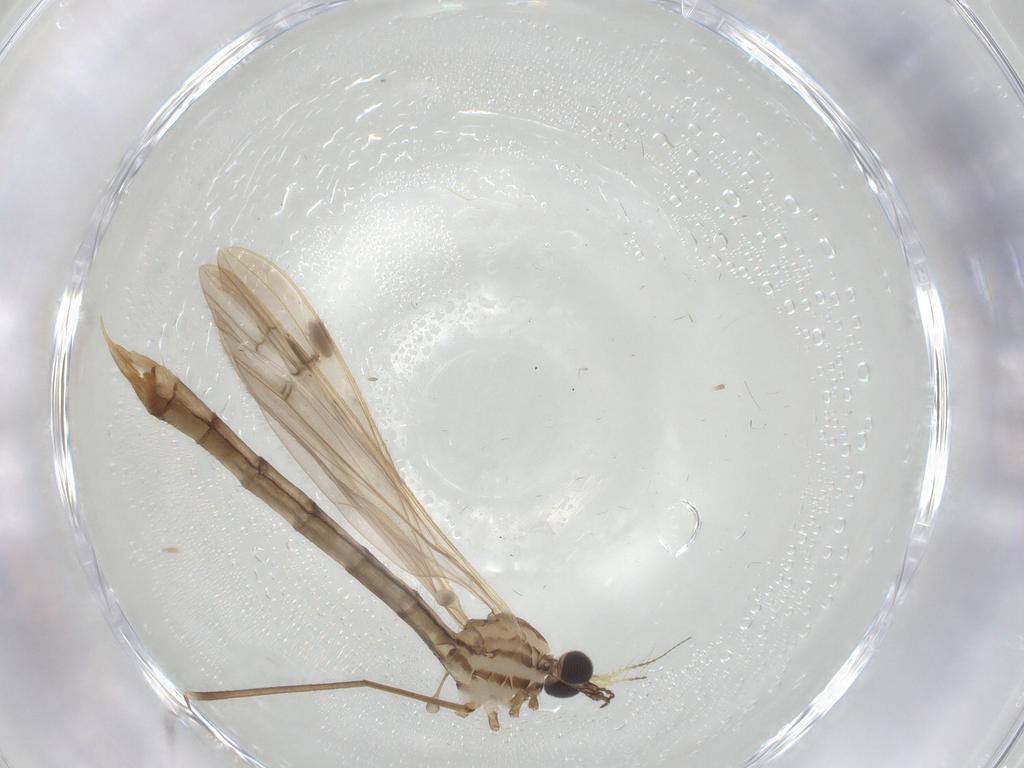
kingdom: Animalia
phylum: Arthropoda
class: Insecta
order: Diptera
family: Limoniidae
